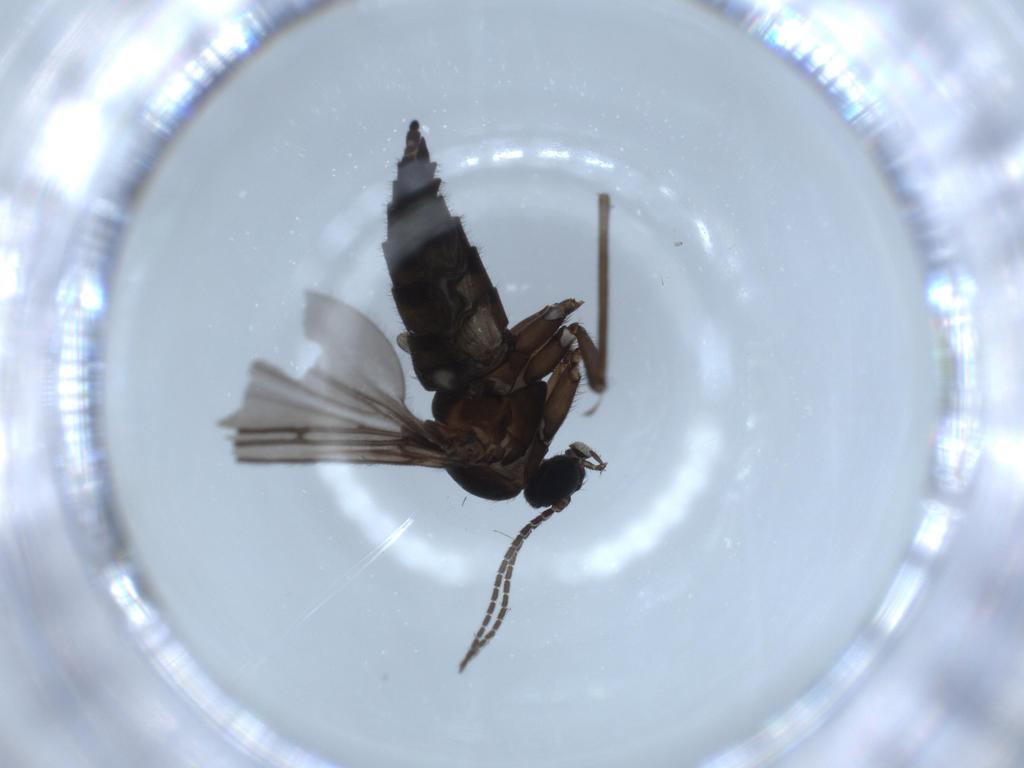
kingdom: Animalia
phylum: Arthropoda
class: Insecta
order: Diptera
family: Sciaridae
